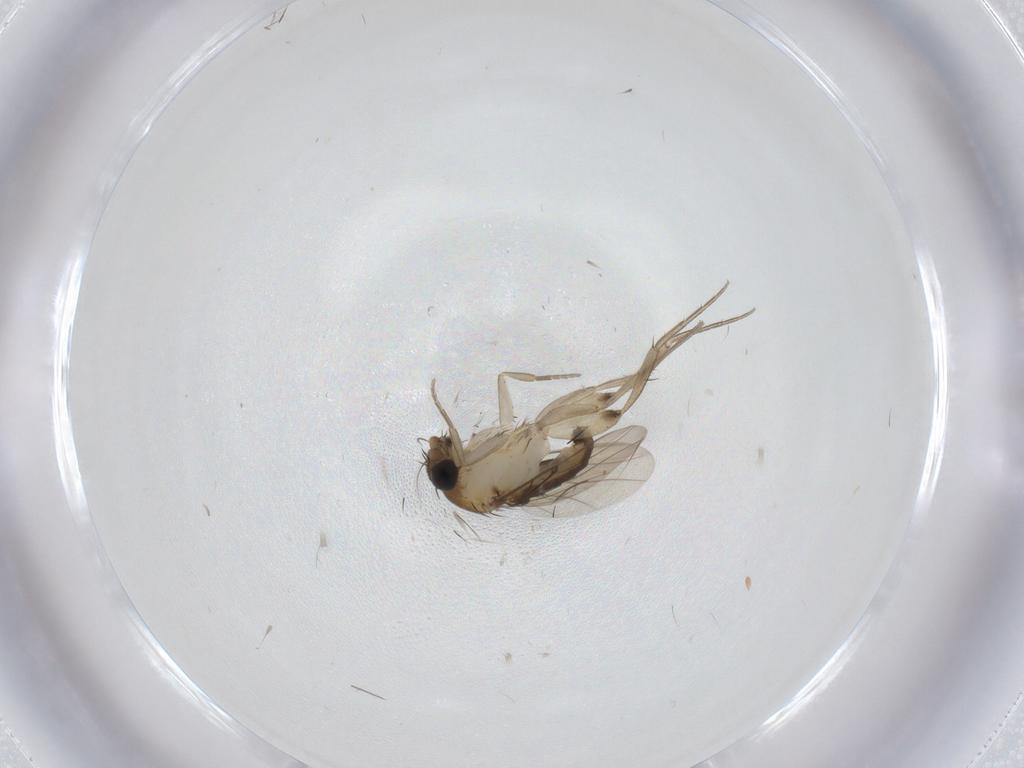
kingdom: Animalia
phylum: Arthropoda
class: Insecta
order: Diptera
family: Phoridae
